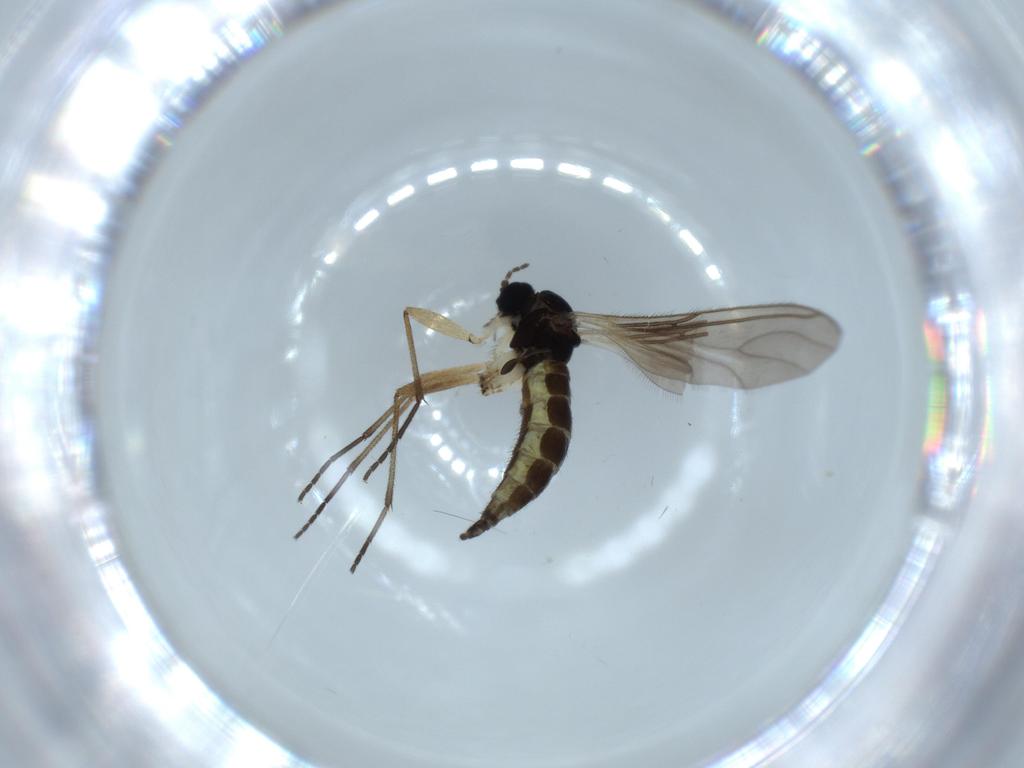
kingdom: Animalia
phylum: Arthropoda
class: Insecta
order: Diptera
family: Sciaridae
